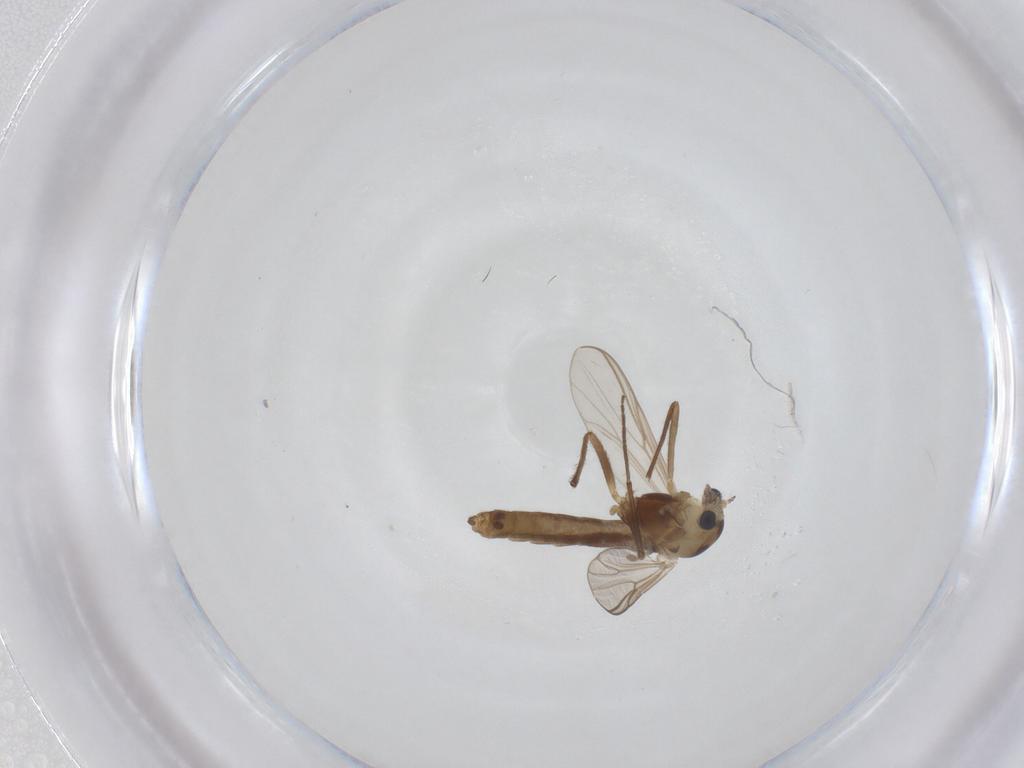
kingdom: Animalia
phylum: Arthropoda
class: Insecta
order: Diptera
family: Chironomidae
